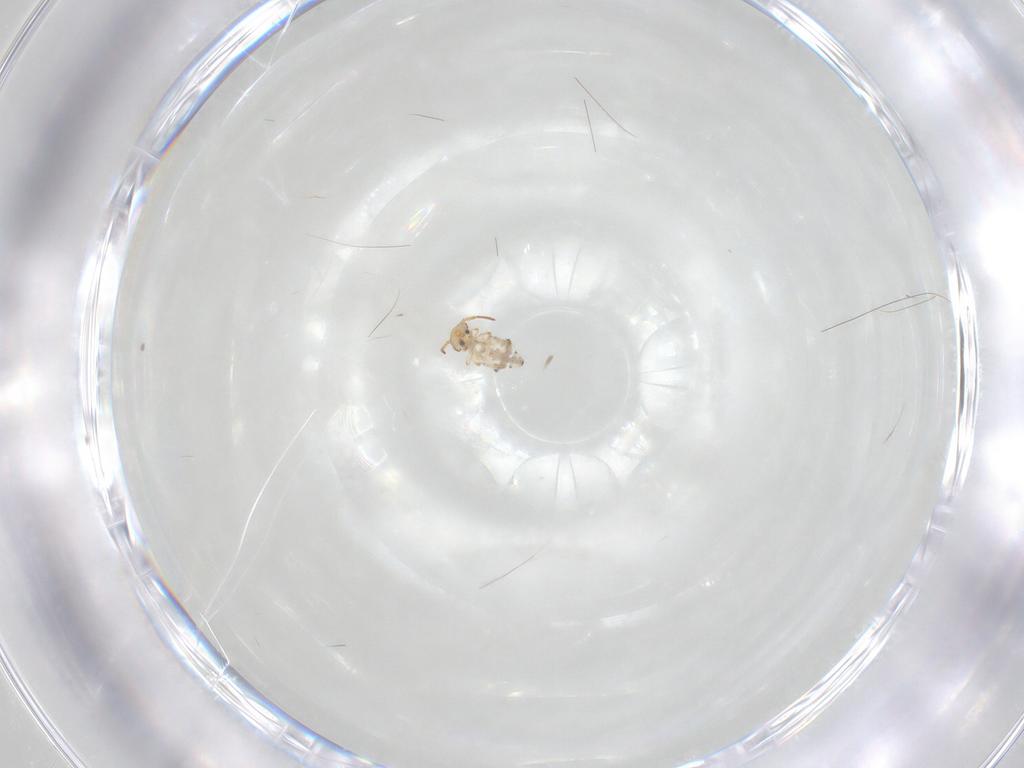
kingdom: Animalia
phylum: Arthropoda
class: Collembola
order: Symphypleona
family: Bourletiellidae
